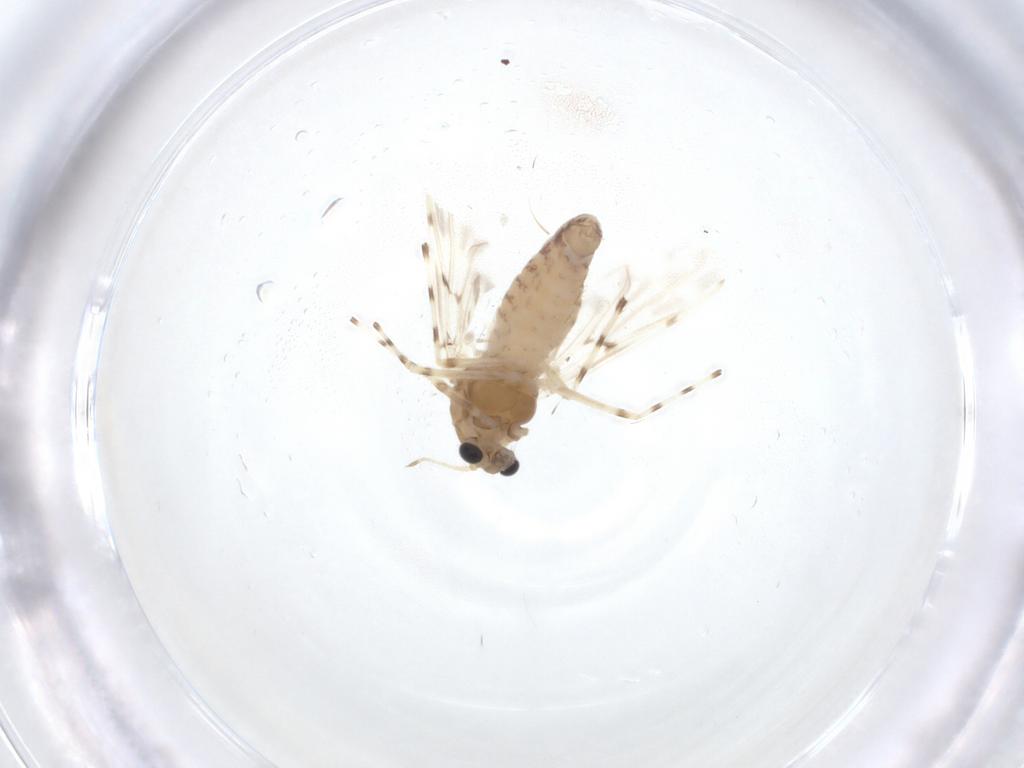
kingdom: Animalia
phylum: Arthropoda
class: Insecta
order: Diptera
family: Chironomidae
